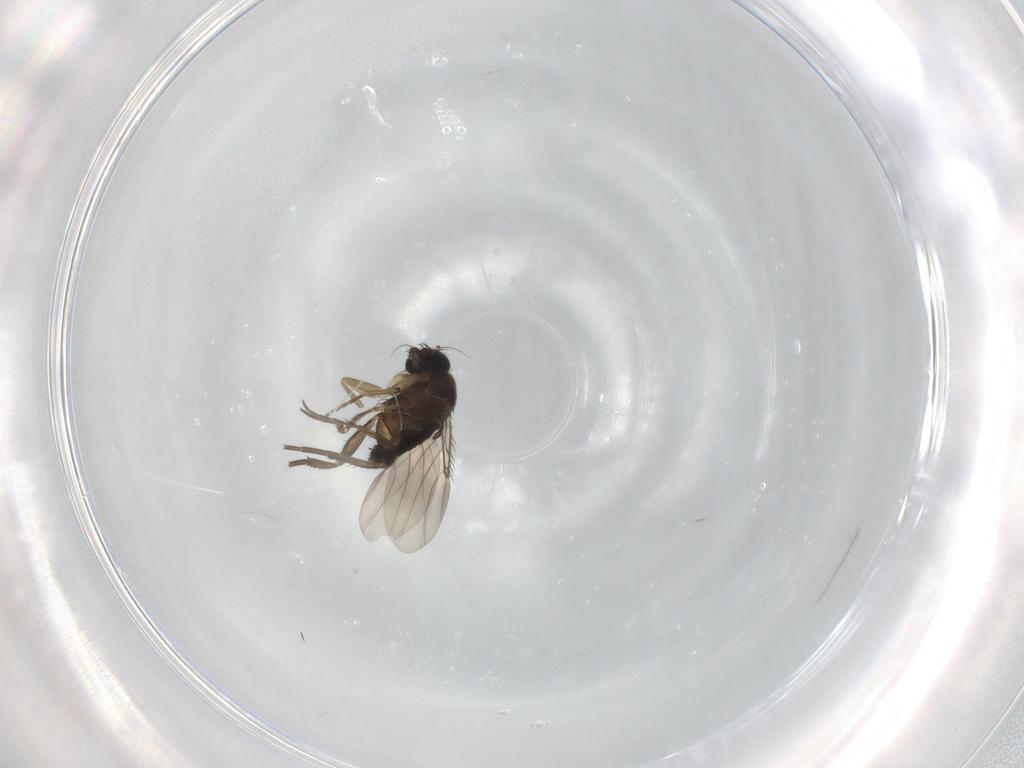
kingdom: Animalia
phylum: Arthropoda
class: Insecta
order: Diptera
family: Phoridae
